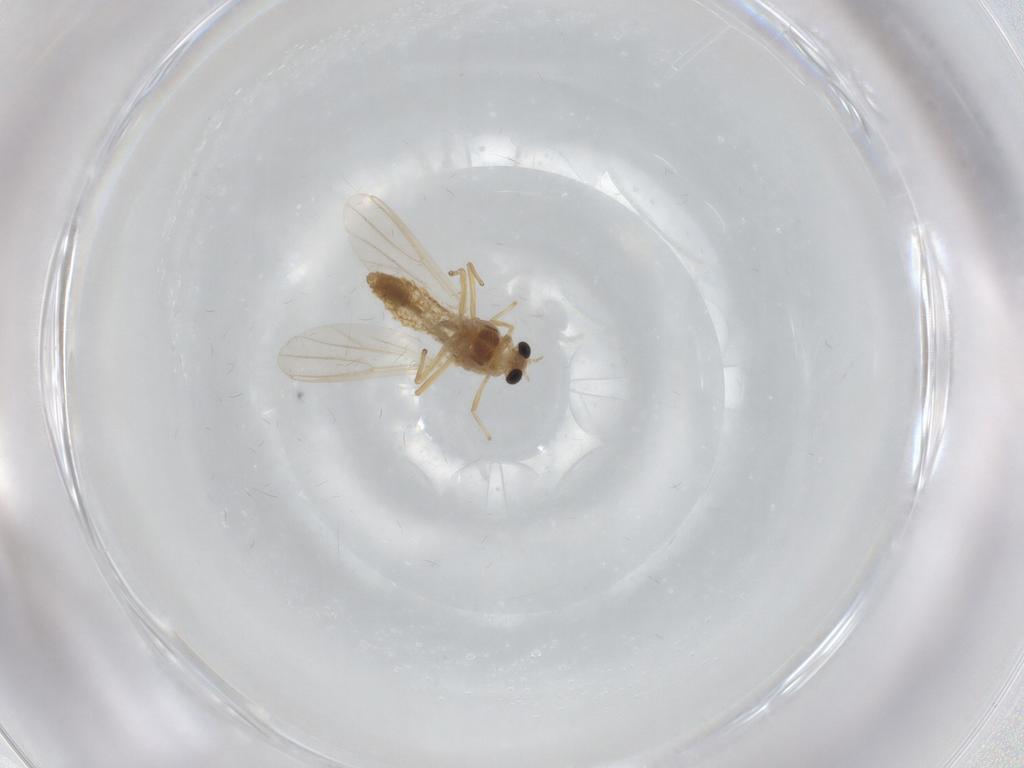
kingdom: Animalia
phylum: Arthropoda
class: Insecta
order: Diptera
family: Chironomidae
